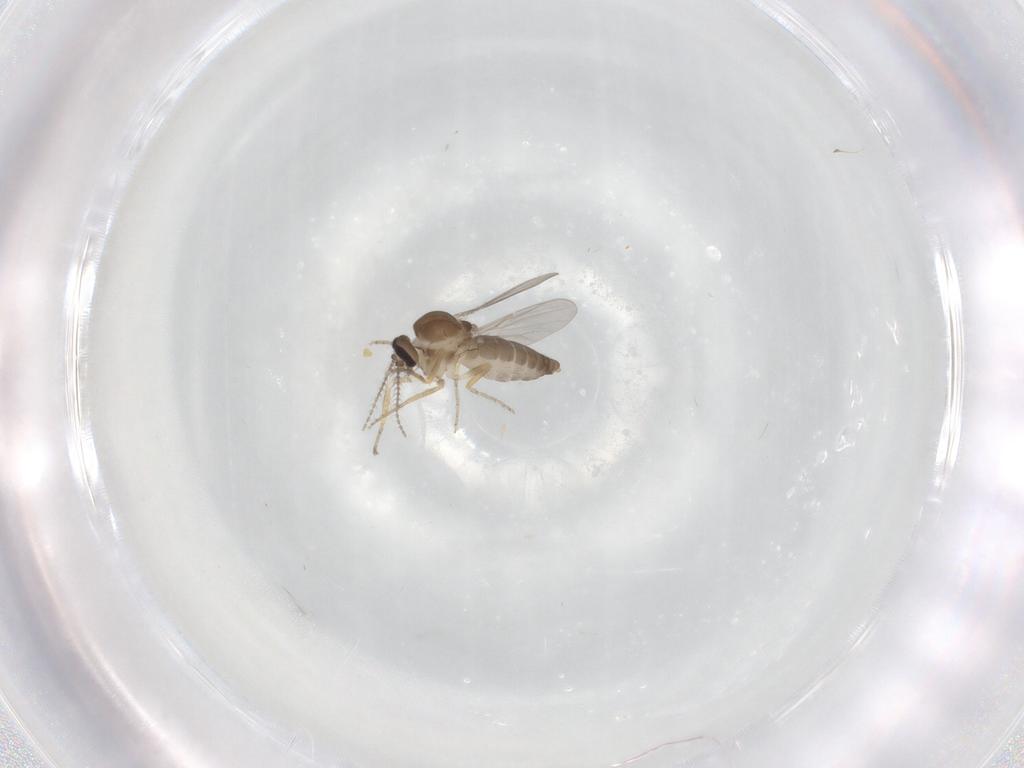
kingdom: Animalia
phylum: Arthropoda
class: Insecta
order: Diptera
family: Ceratopogonidae
